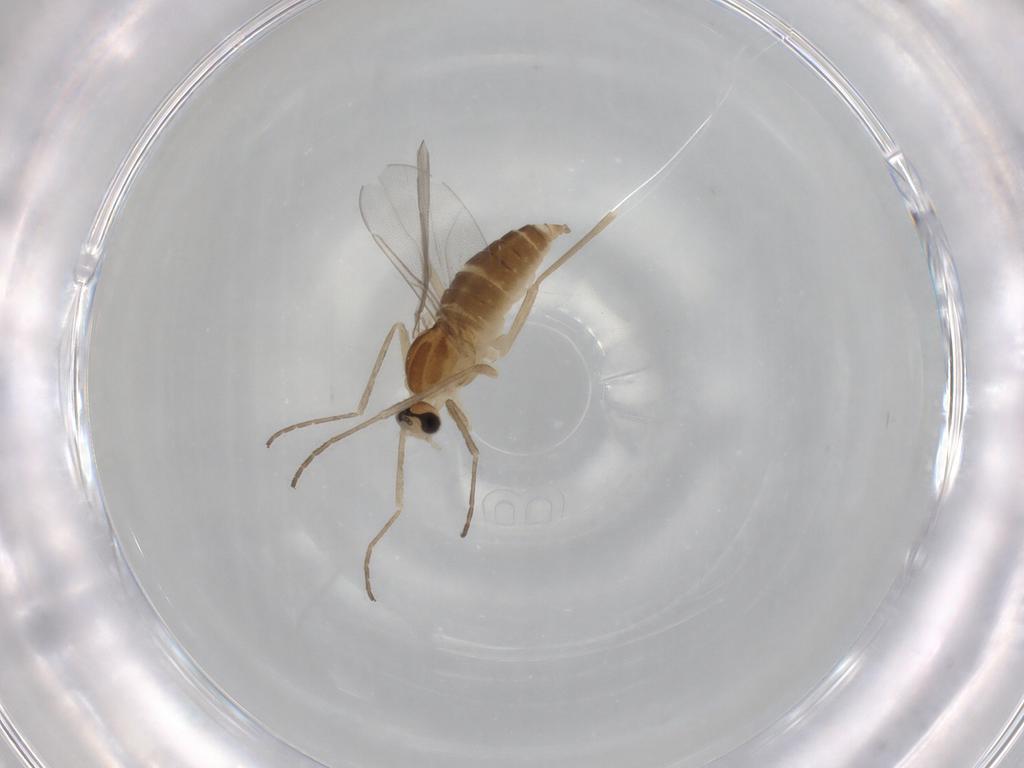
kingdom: Animalia
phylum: Arthropoda
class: Insecta
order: Diptera
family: Cecidomyiidae
